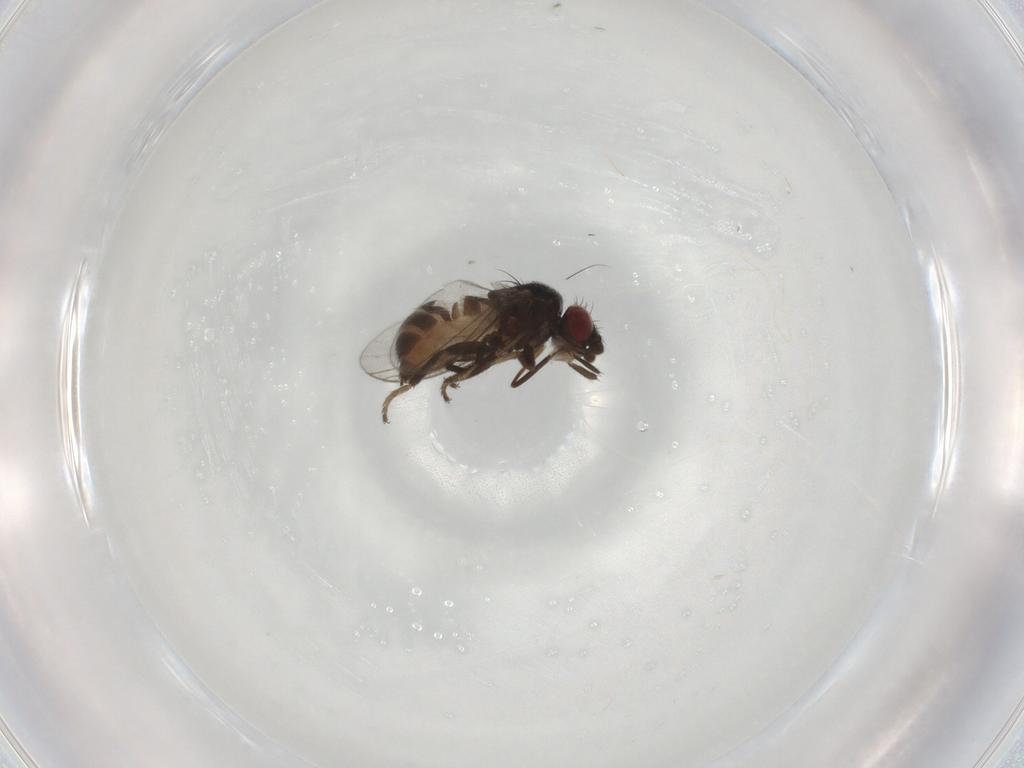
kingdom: Animalia
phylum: Arthropoda
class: Insecta
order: Diptera
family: Milichiidae
